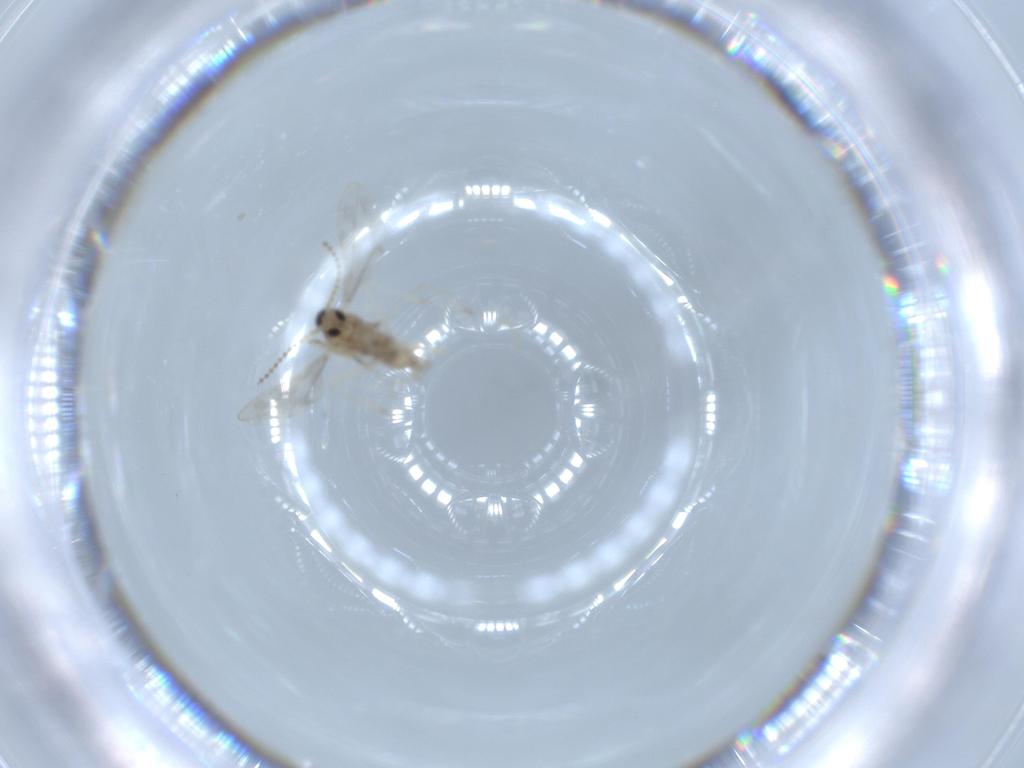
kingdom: Animalia
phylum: Arthropoda
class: Insecta
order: Diptera
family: Cecidomyiidae
